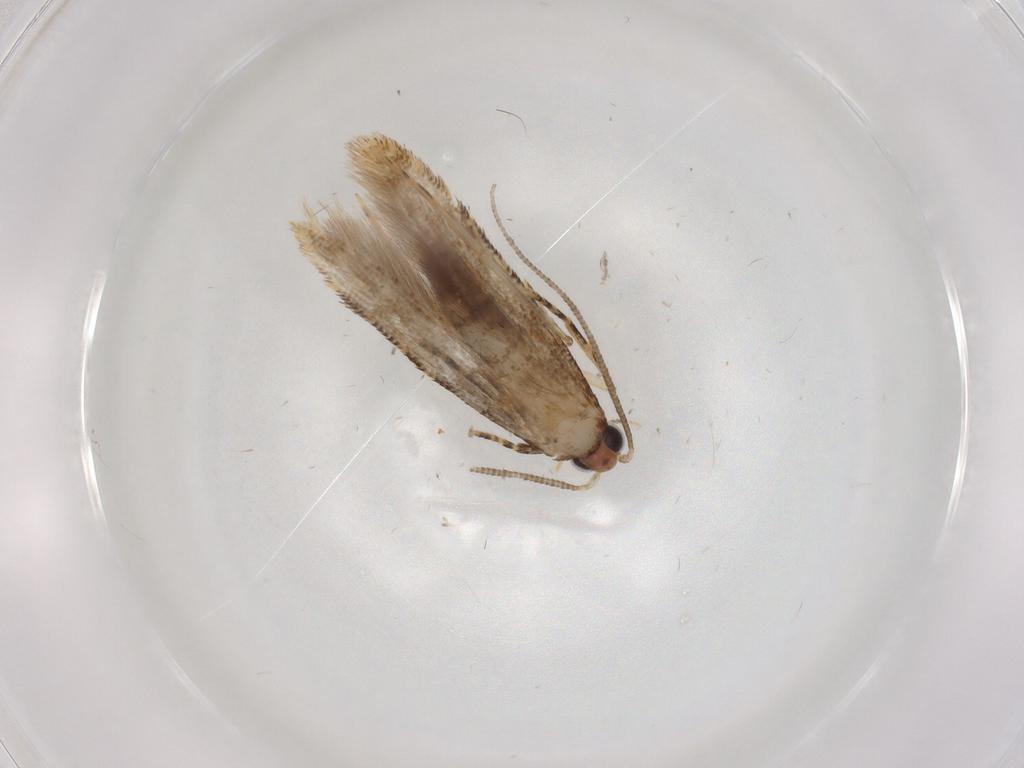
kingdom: Animalia
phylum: Arthropoda
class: Insecta
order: Lepidoptera
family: Tineidae
